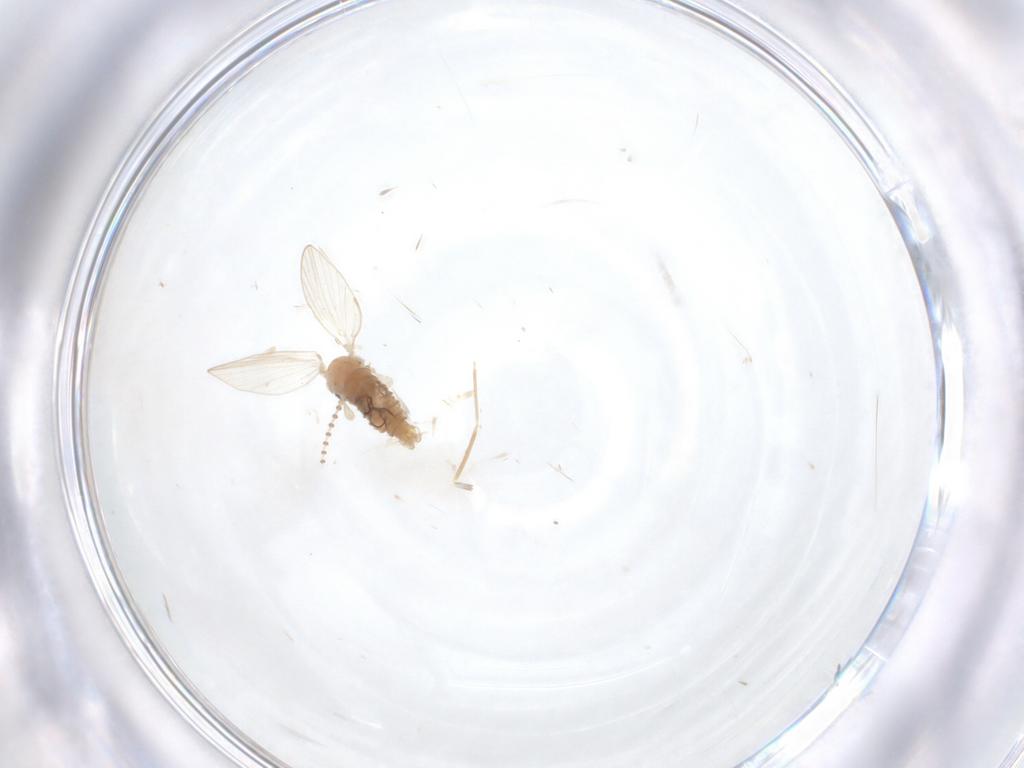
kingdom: Animalia
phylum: Arthropoda
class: Insecta
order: Diptera
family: Psychodidae
